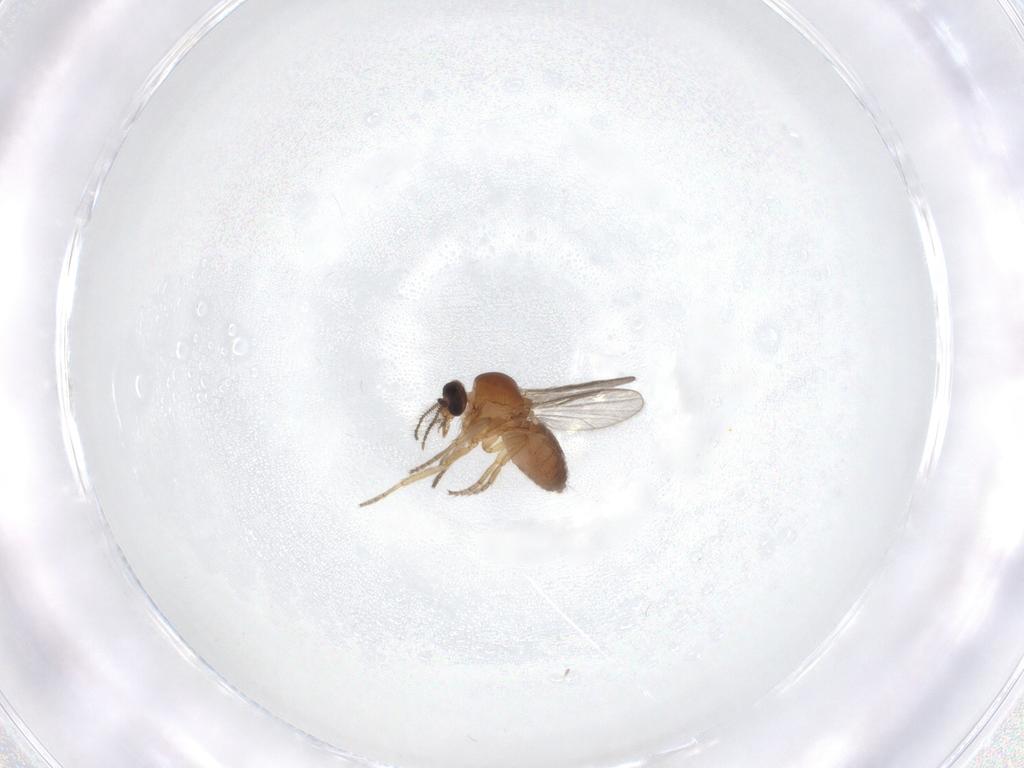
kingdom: Animalia
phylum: Arthropoda
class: Insecta
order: Diptera
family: Ceratopogonidae
